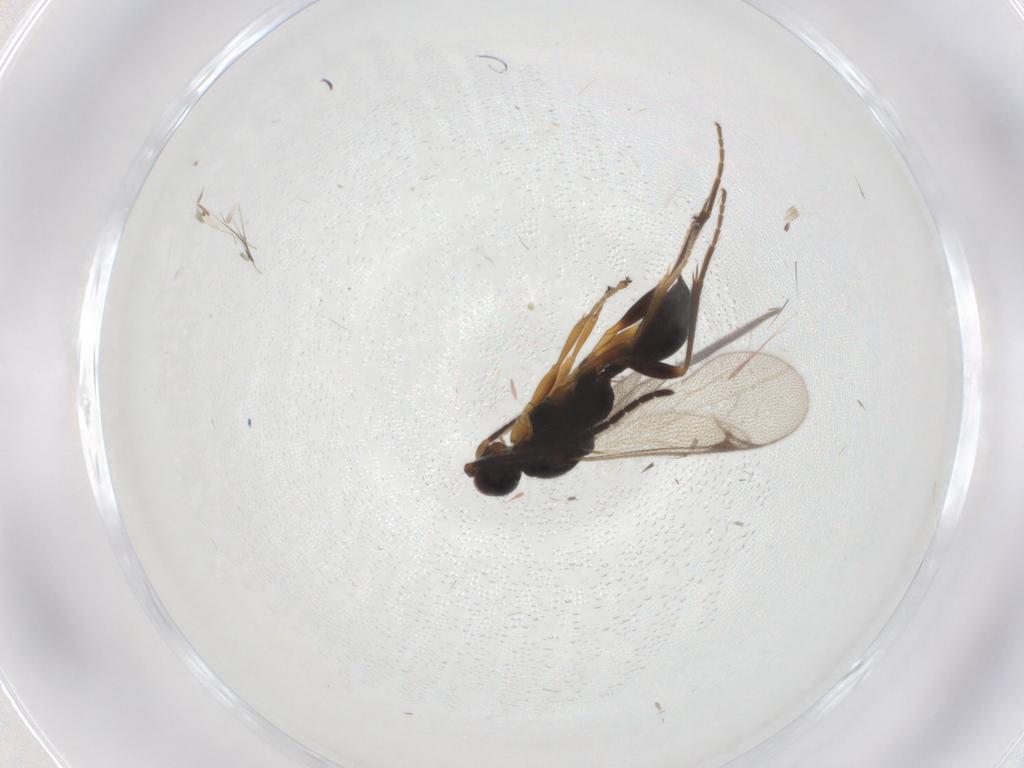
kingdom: Animalia
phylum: Arthropoda
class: Insecta
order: Hymenoptera
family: Proctotrupidae
